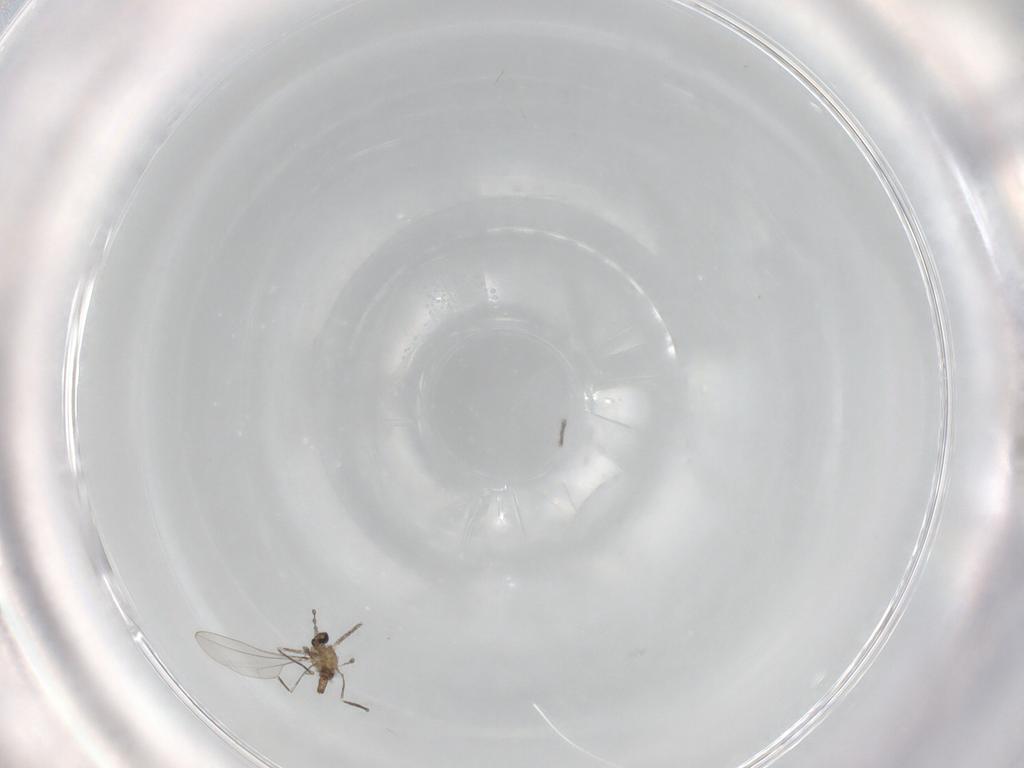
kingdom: Animalia
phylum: Arthropoda
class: Insecta
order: Diptera
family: Cecidomyiidae
